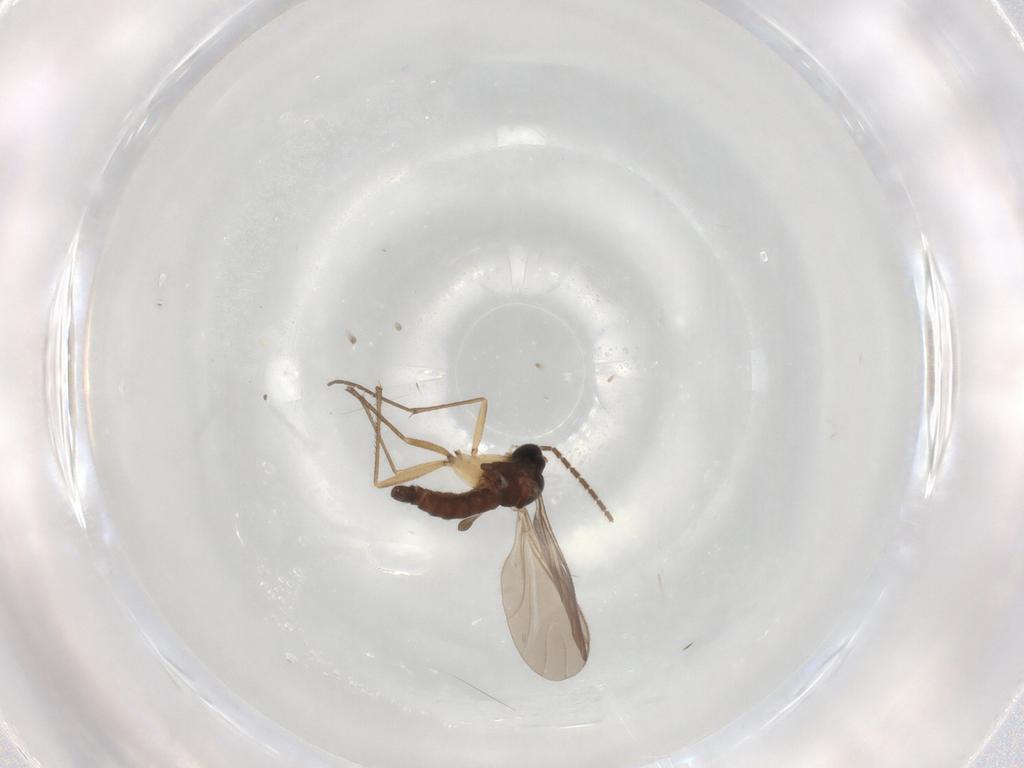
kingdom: Animalia
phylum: Arthropoda
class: Insecta
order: Diptera
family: Sciaridae
